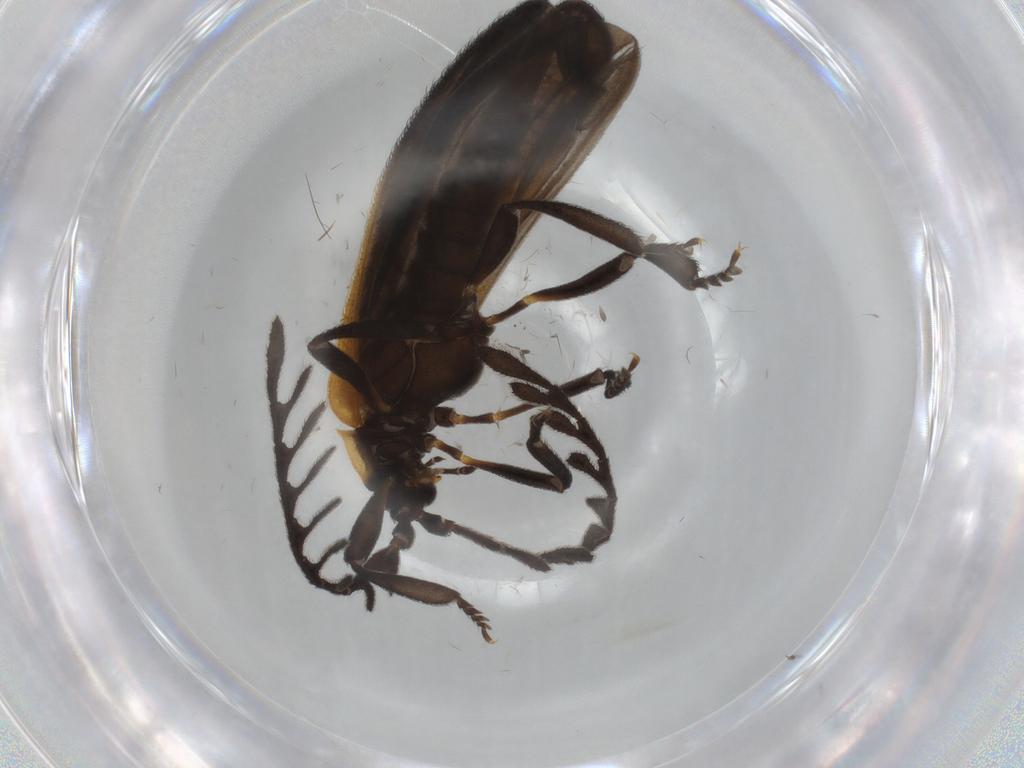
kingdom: Animalia
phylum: Arthropoda
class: Insecta
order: Coleoptera
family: Lycidae
